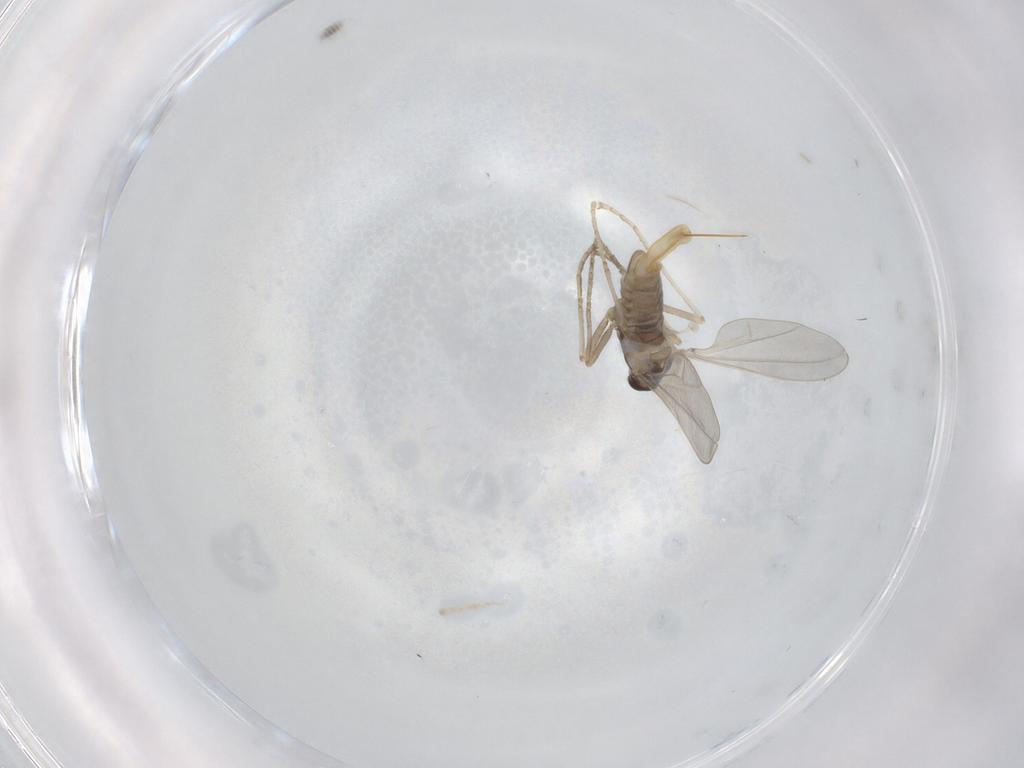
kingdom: Animalia
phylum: Arthropoda
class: Insecta
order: Diptera
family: Cecidomyiidae
